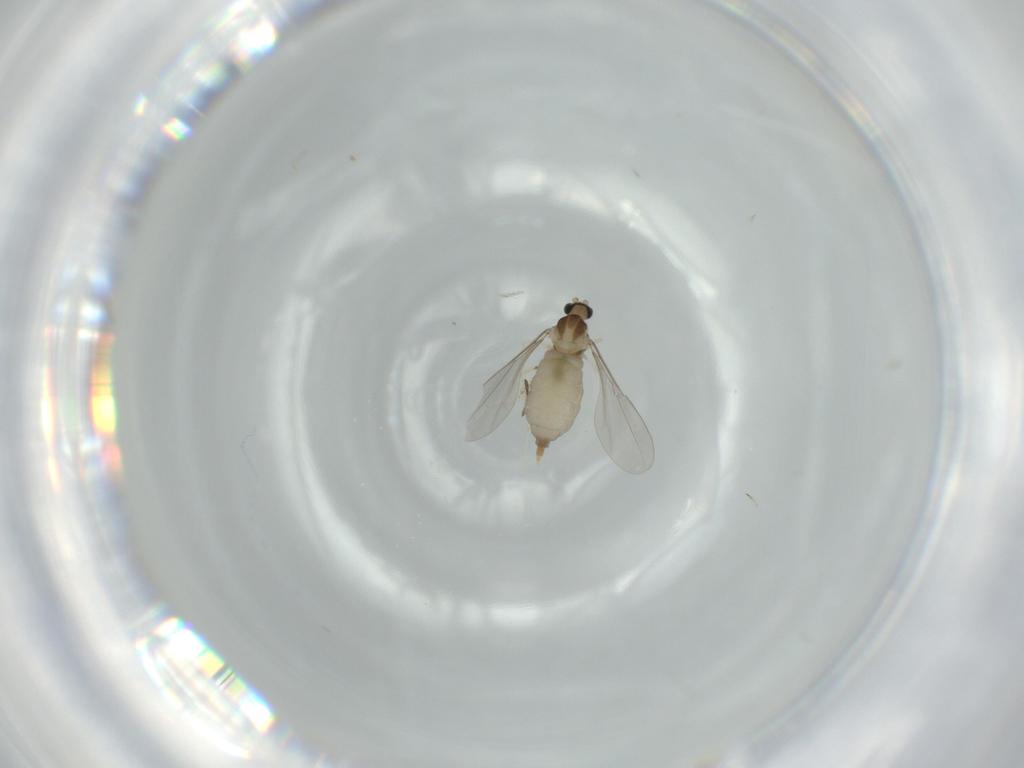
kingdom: Animalia
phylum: Arthropoda
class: Insecta
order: Diptera
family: Drosophilidae
